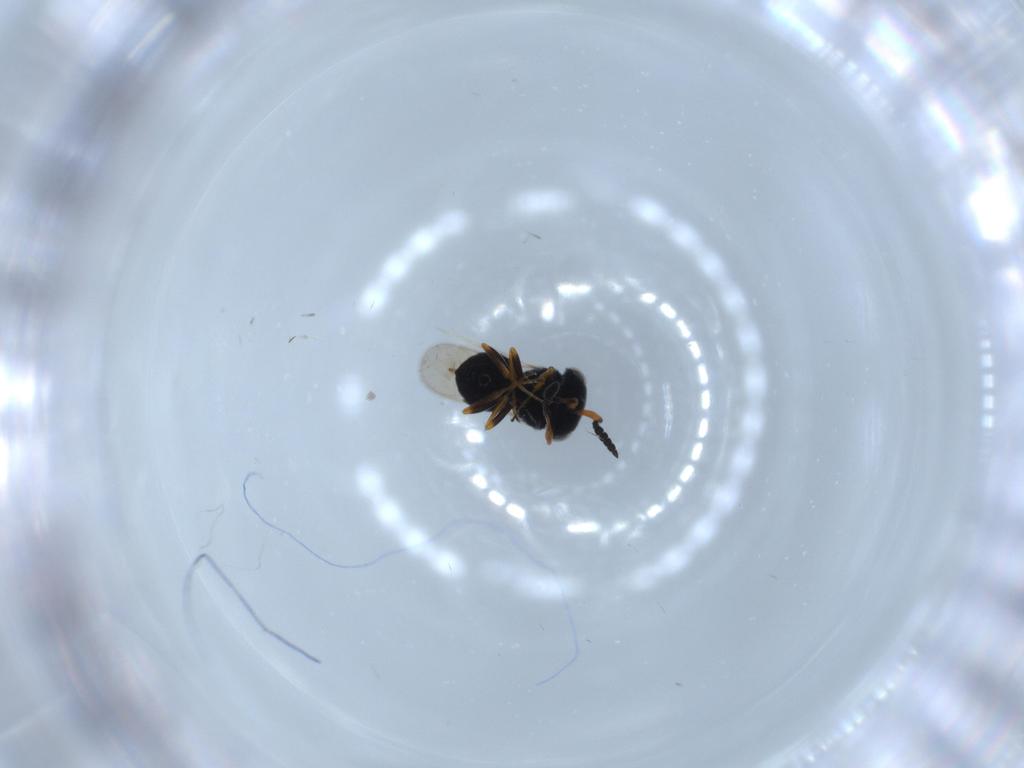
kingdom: Animalia
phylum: Arthropoda
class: Insecta
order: Hymenoptera
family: Scelionidae
